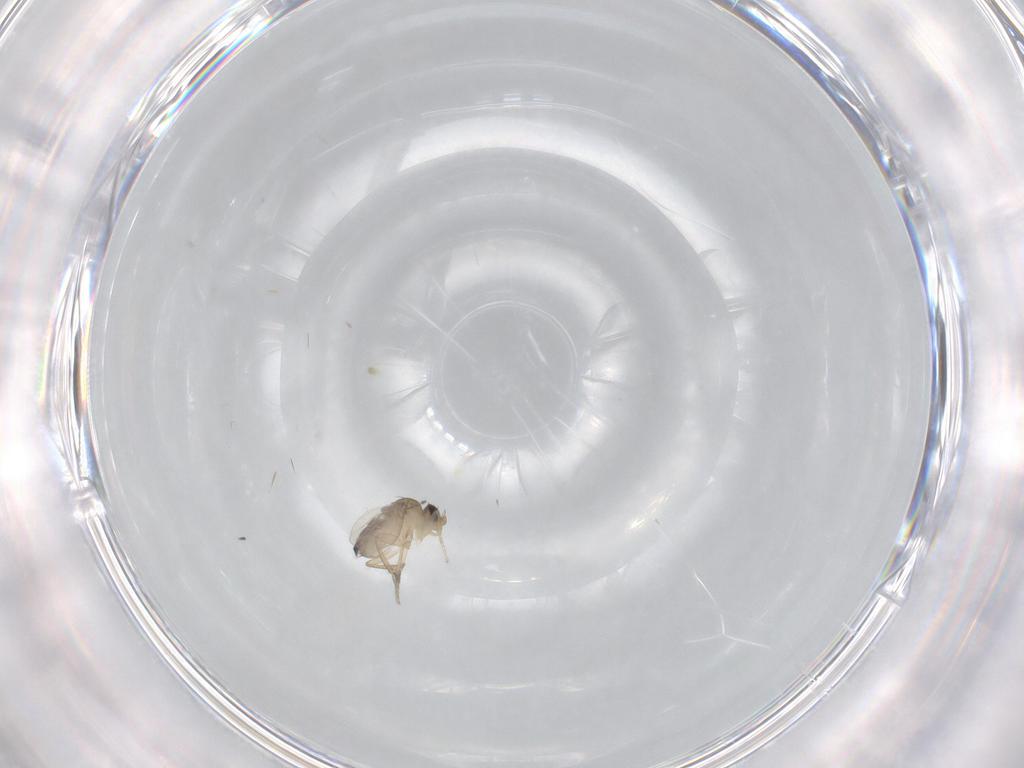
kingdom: Animalia
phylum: Arthropoda
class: Insecta
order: Diptera
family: Phoridae
